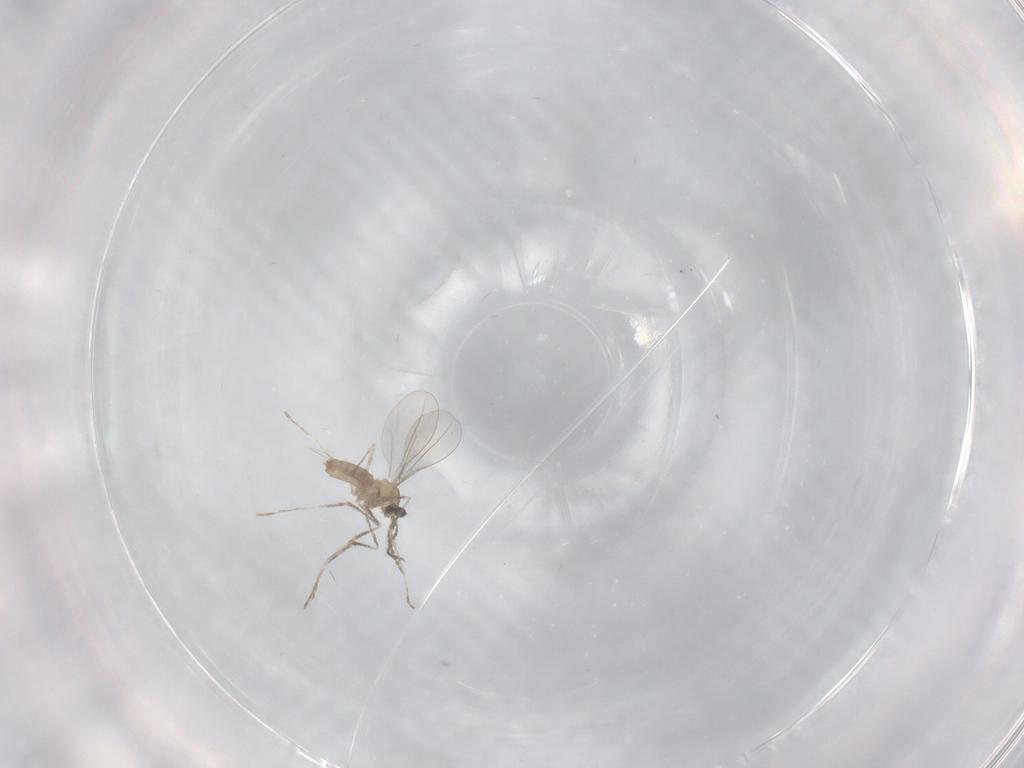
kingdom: Animalia
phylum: Arthropoda
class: Insecta
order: Diptera
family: Cecidomyiidae
